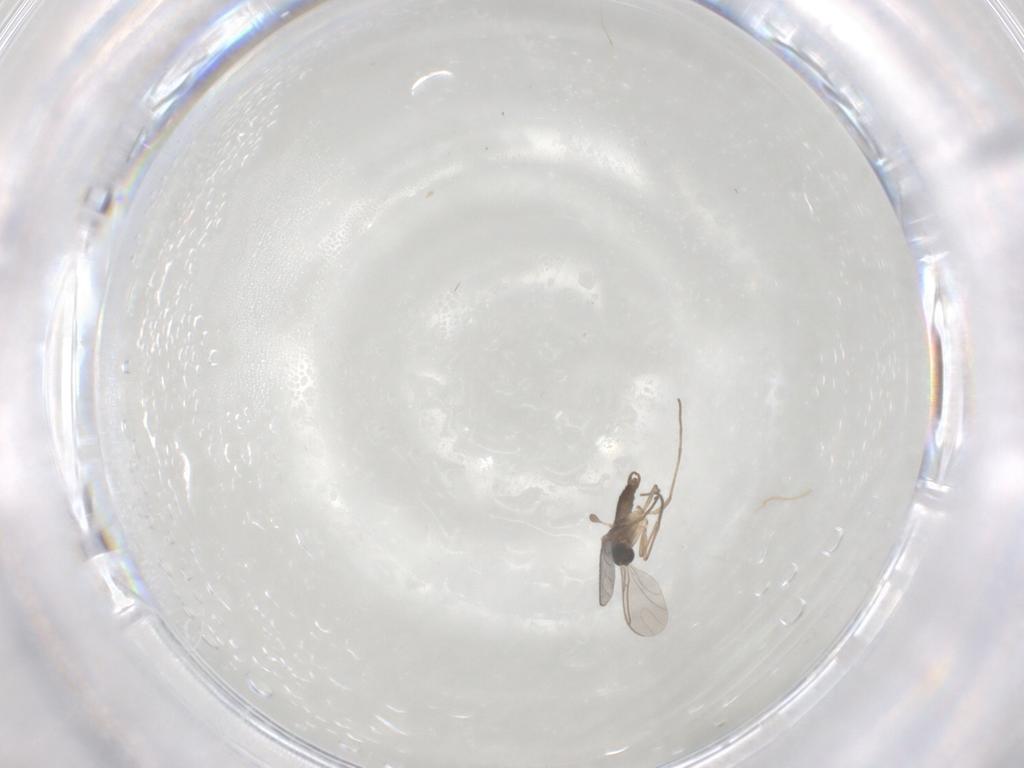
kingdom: Animalia
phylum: Arthropoda
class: Insecta
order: Diptera
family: Sciaridae
